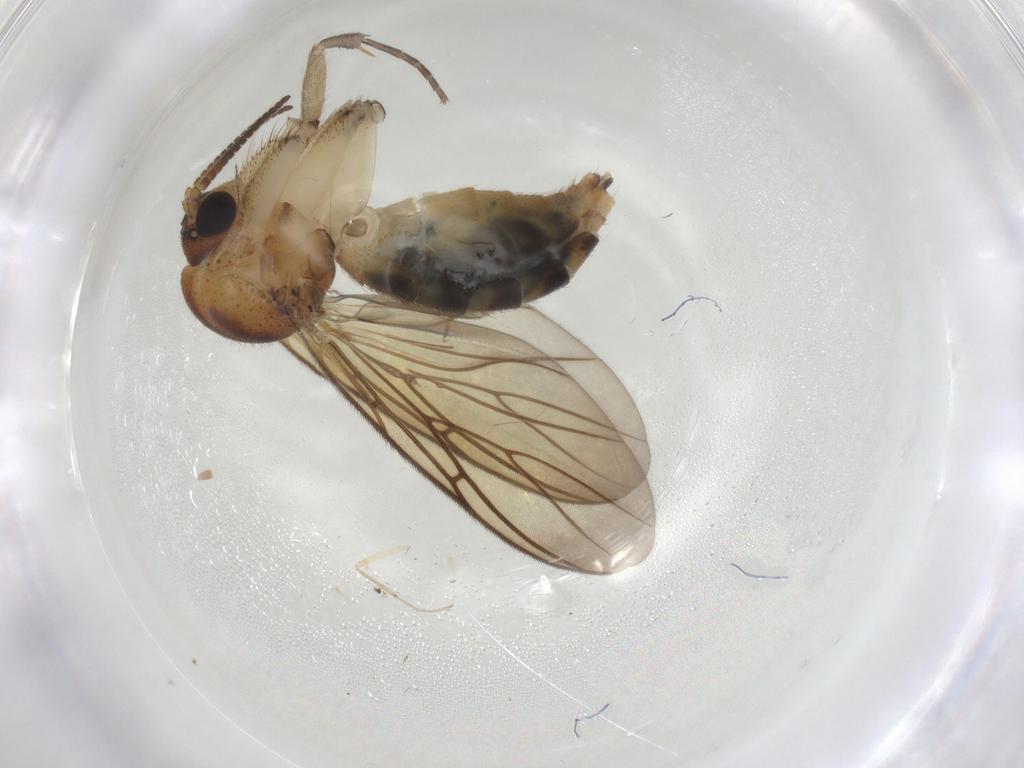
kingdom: Animalia
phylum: Arthropoda
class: Insecta
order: Diptera
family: Mycetophilidae
